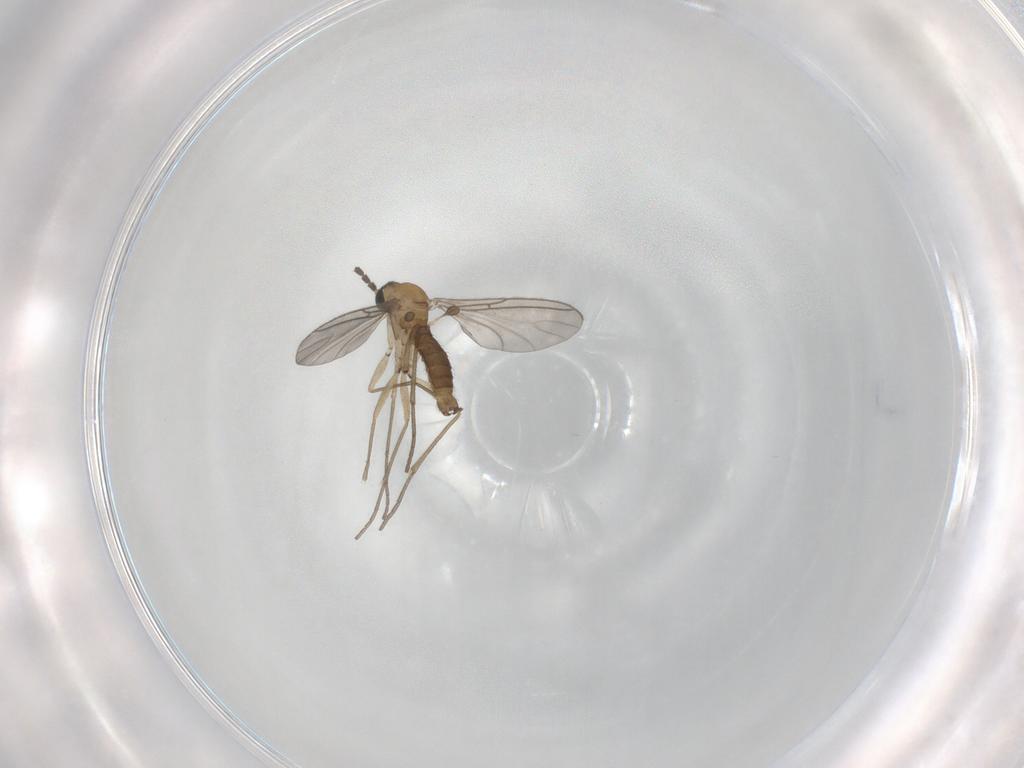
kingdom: Animalia
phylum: Arthropoda
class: Insecta
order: Diptera
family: Sciaridae
